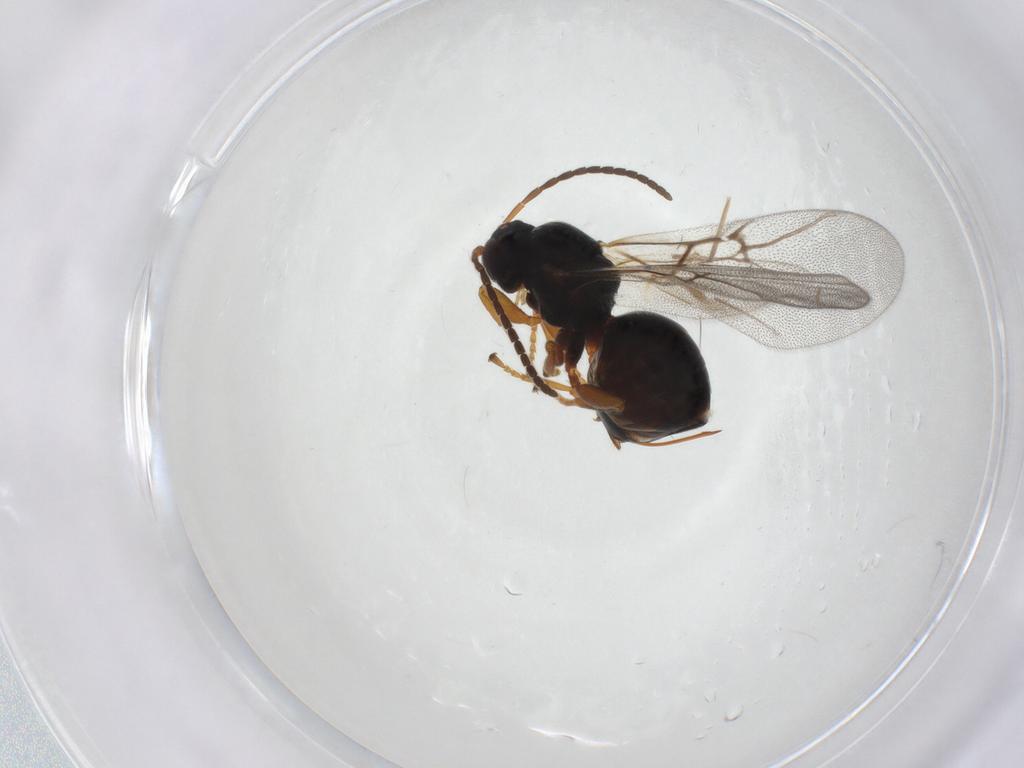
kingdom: Animalia
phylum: Arthropoda
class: Insecta
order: Hymenoptera
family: Cynipidae
